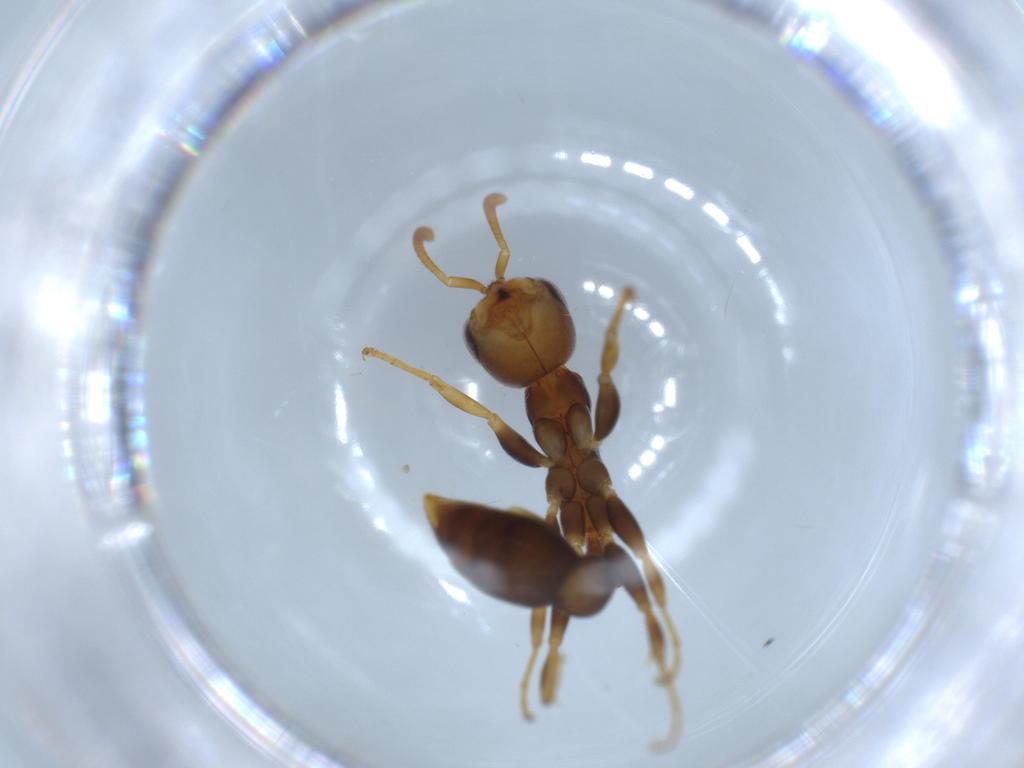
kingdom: Animalia
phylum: Arthropoda
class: Insecta
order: Hymenoptera
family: Formicidae
